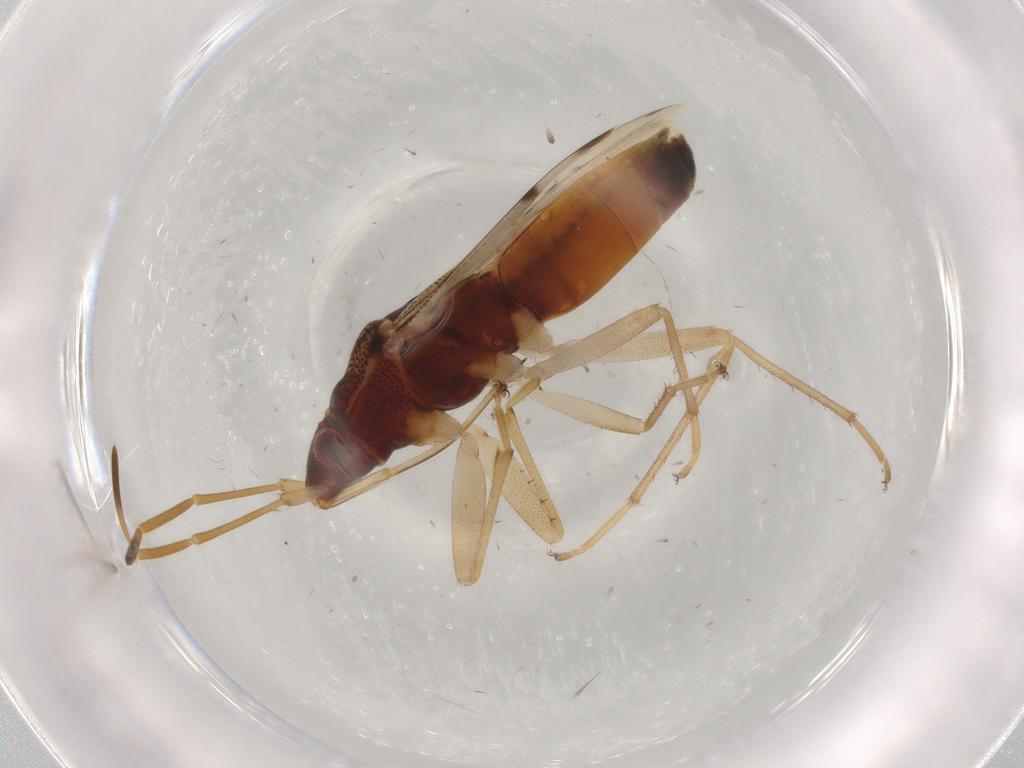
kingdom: Animalia
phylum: Arthropoda
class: Insecta
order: Hemiptera
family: Rhyparochromidae
